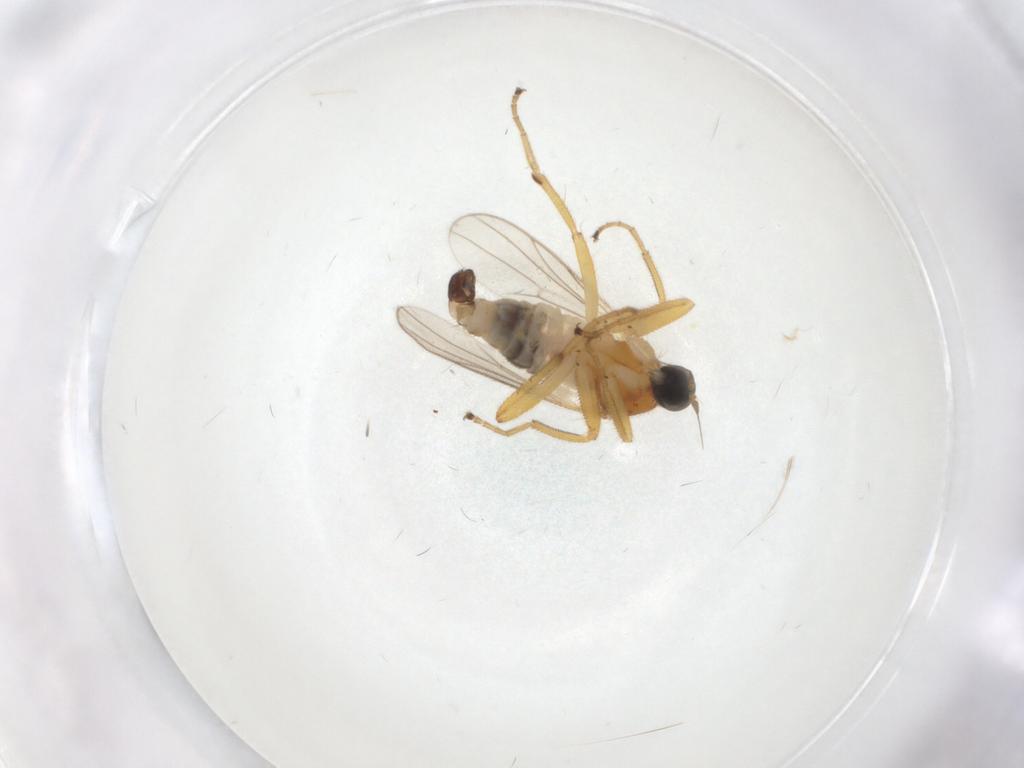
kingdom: Animalia
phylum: Arthropoda
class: Insecta
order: Diptera
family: Hybotidae
